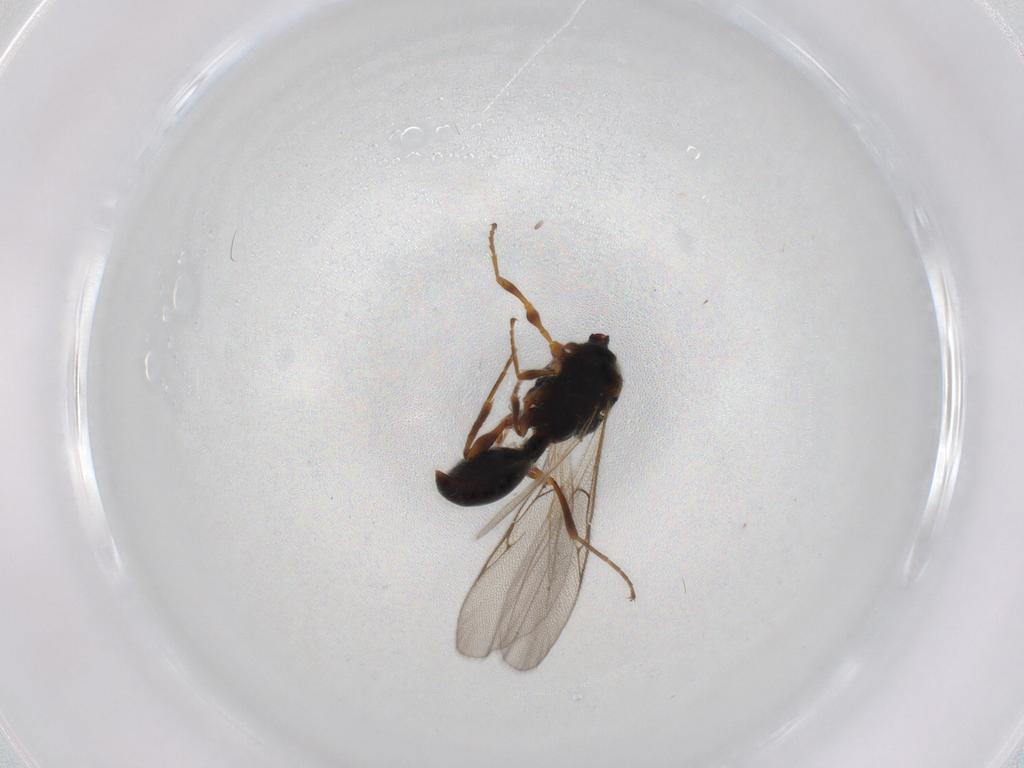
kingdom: Animalia
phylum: Arthropoda
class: Insecta
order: Hymenoptera
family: Diapriidae
